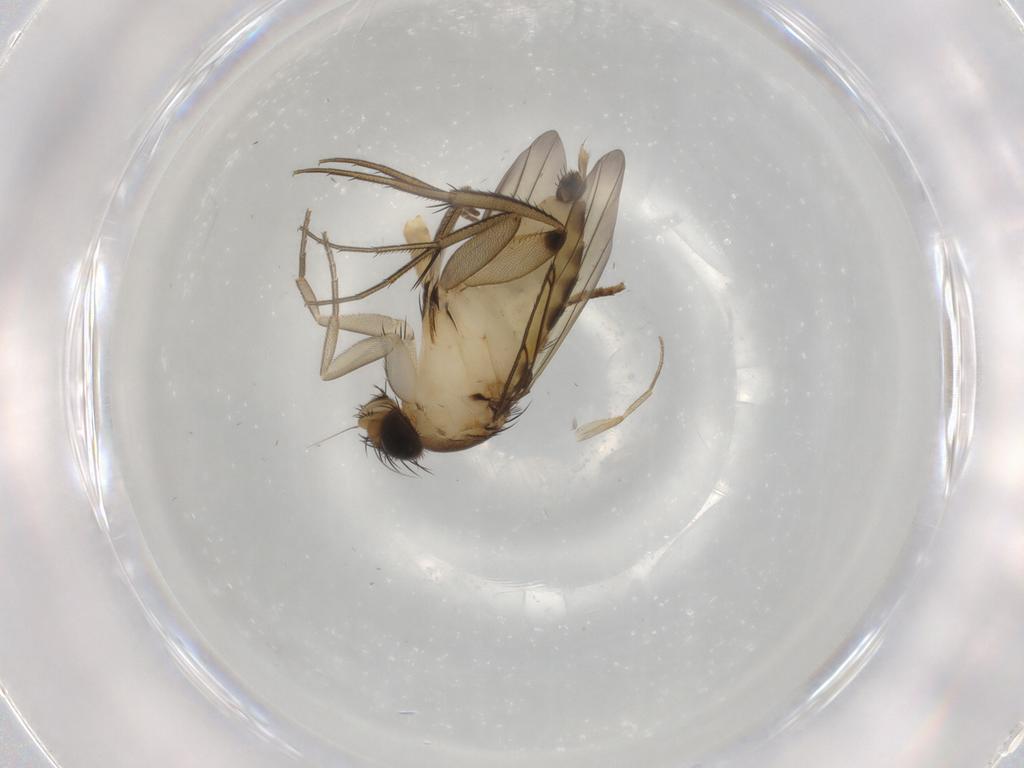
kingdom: Animalia
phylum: Arthropoda
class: Insecta
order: Diptera
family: Phoridae
